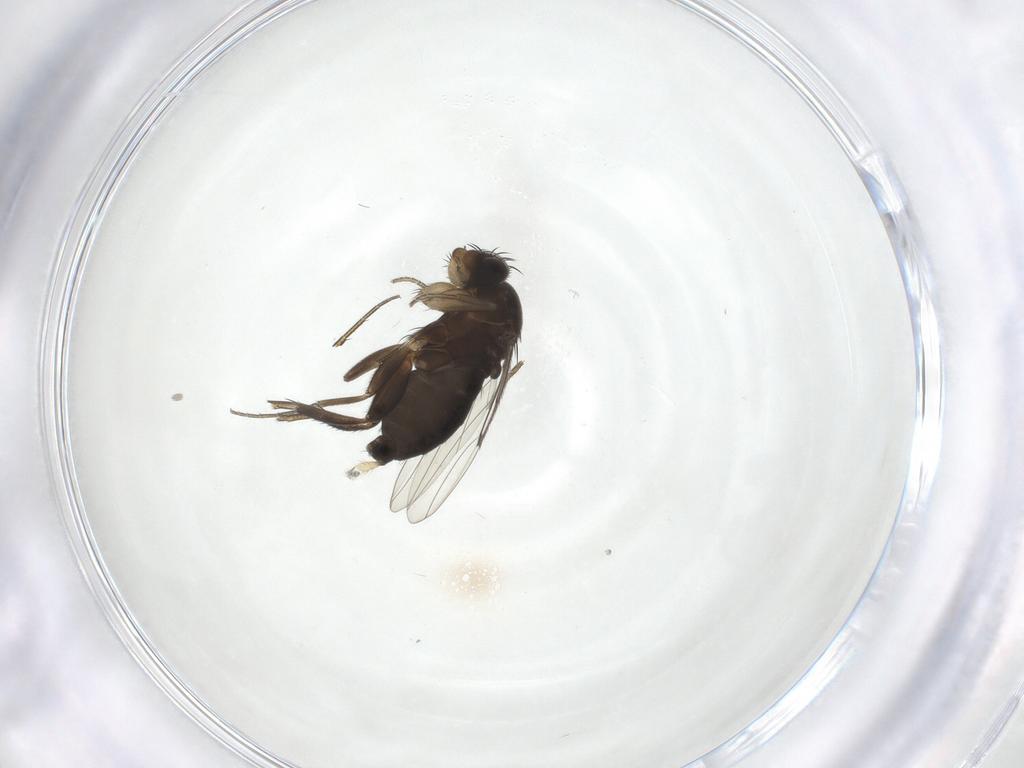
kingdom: Animalia
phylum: Arthropoda
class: Insecta
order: Diptera
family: Phoridae
